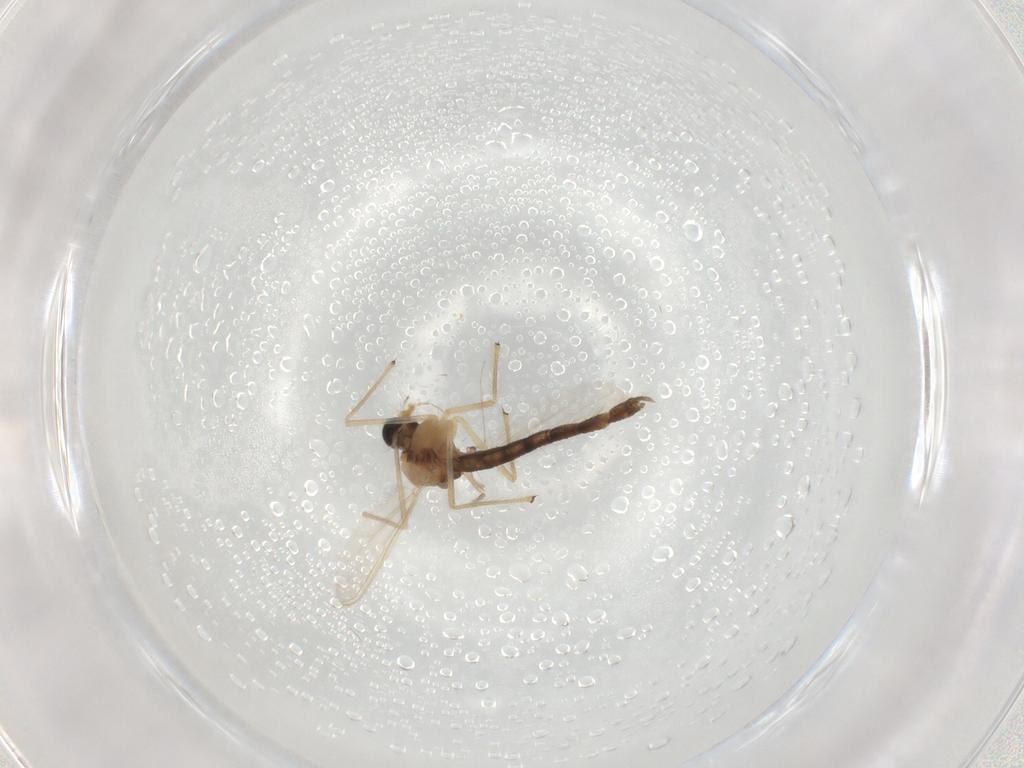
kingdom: Animalia
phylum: Arthropoda
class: Insecta
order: Diptera
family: Chironomidae
